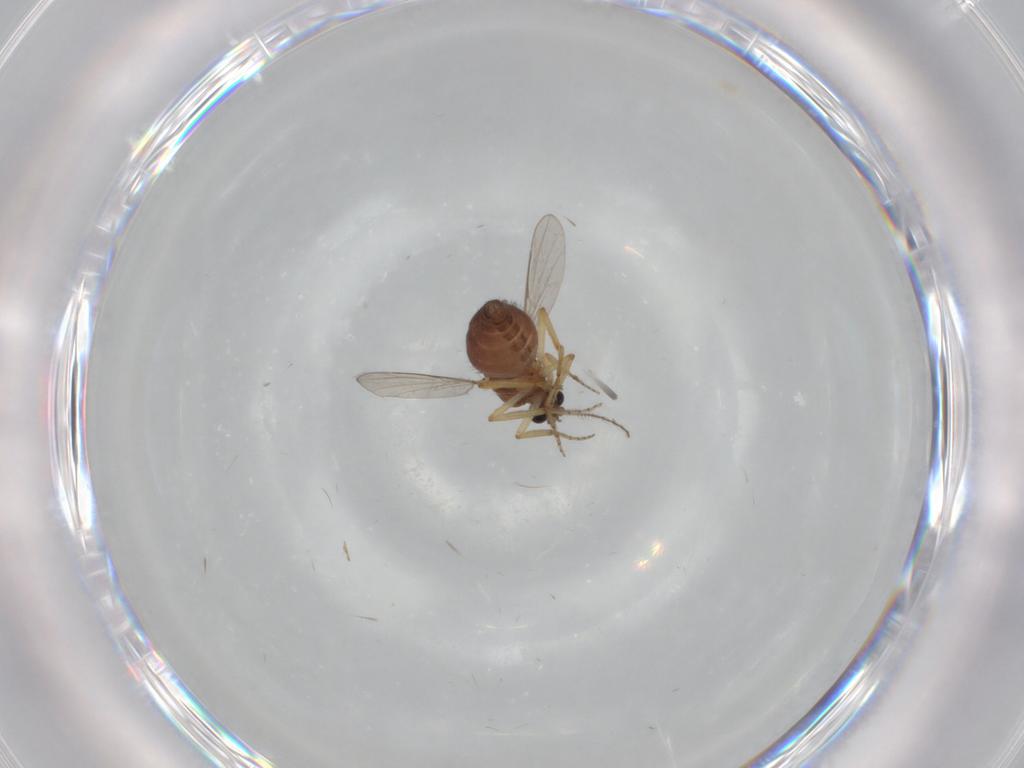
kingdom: Animalia
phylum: Arthropoda
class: Insecta
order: Diptera
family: Ceratopogonidae
